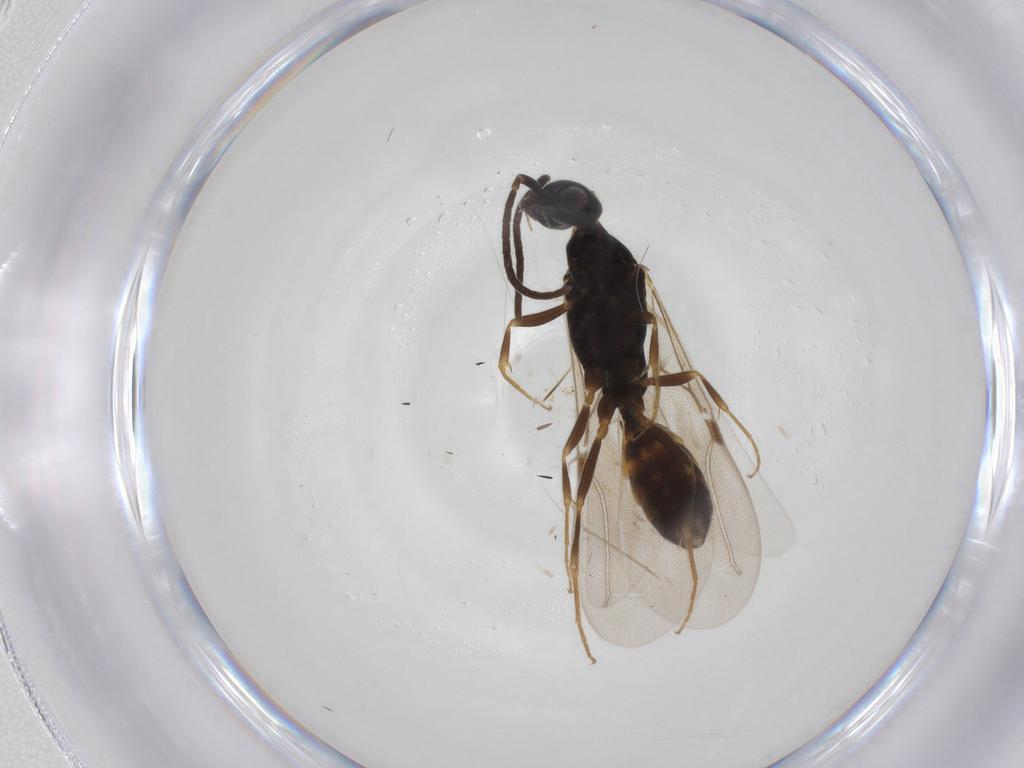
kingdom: Animalia
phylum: Arthropoda
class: Insecta
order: Hymenoptera
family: Bethylidae
